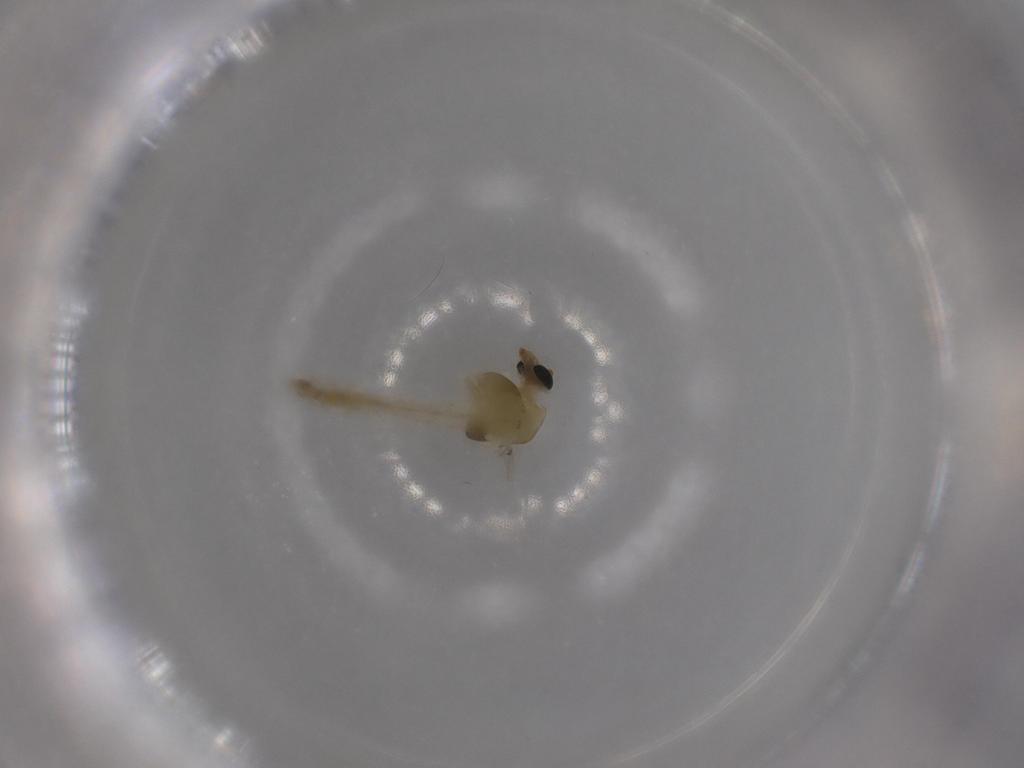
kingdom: Animalia
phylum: Arthropoda
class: Insecta
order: Diptera
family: Chironomidae
